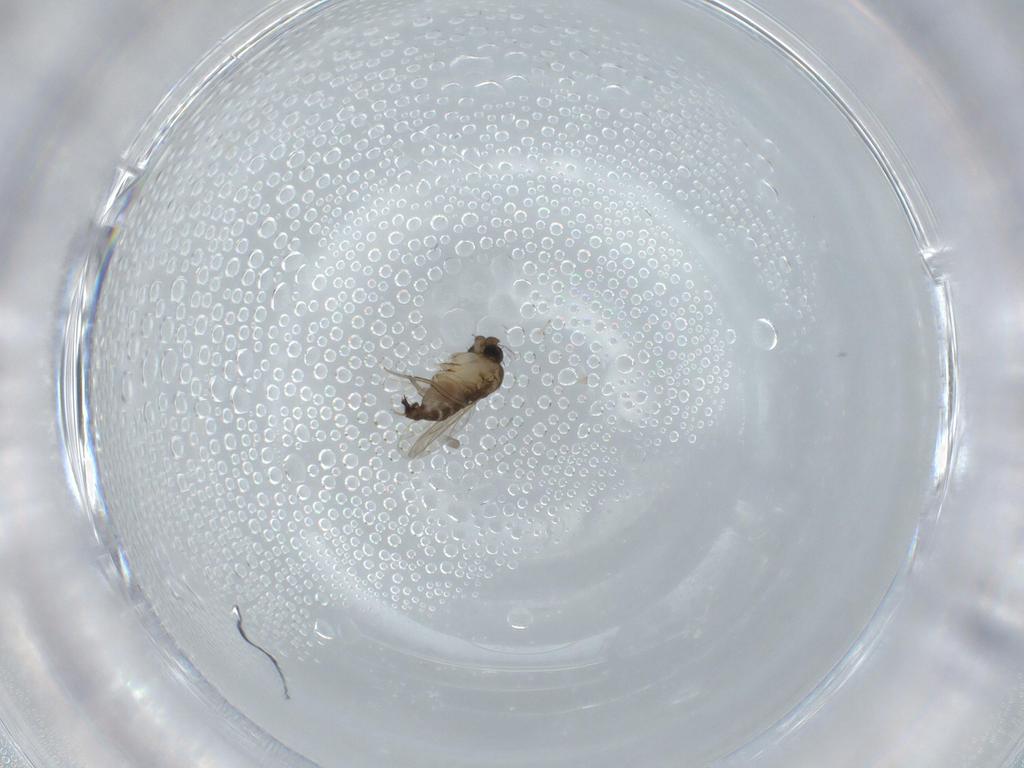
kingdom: Animalia
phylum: Arthropoda
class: Insecta
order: Diptera
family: Phoridae
